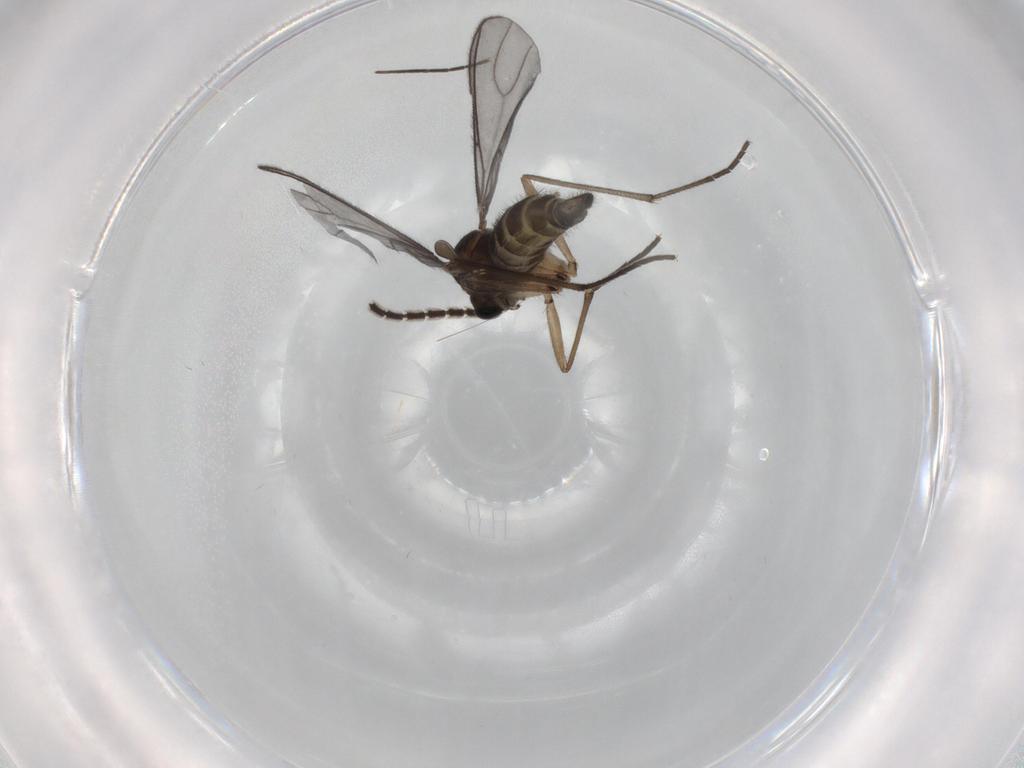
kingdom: Animalia
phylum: Arthropoda
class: Insecta
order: Diptera
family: Sciaridae
